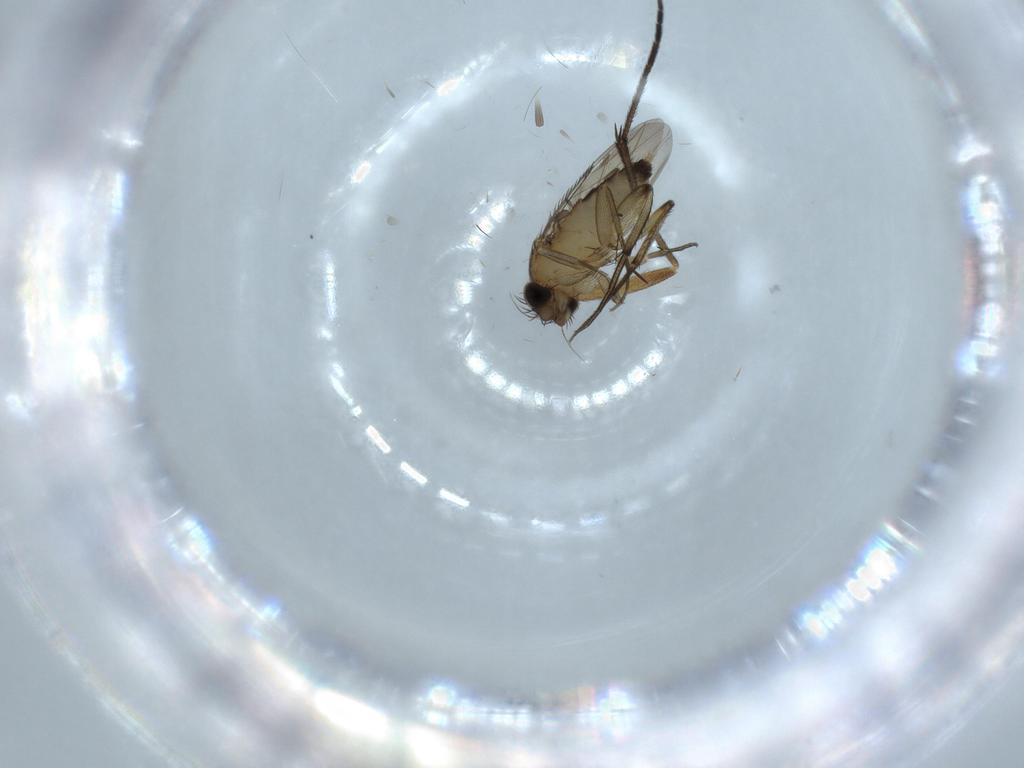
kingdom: Animalia
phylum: Arthropoda
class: Insecta
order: Diptera
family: Phoridae
